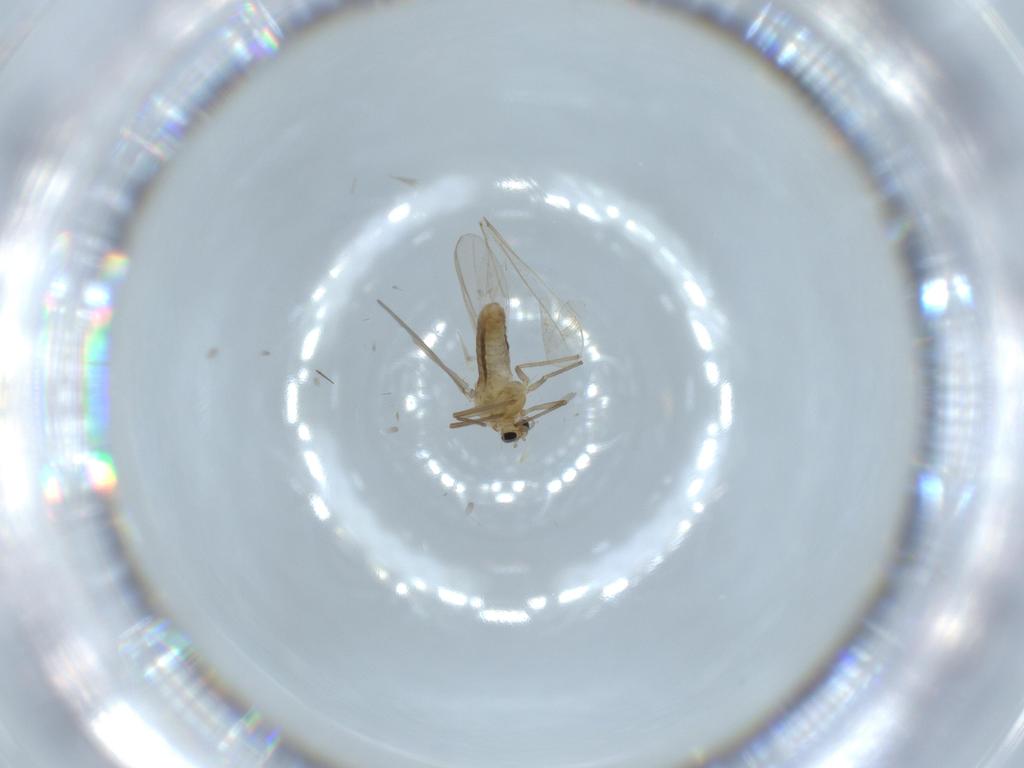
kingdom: Animalia
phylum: Arthropoda
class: Insecta
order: Diptera
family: Chironomidae
